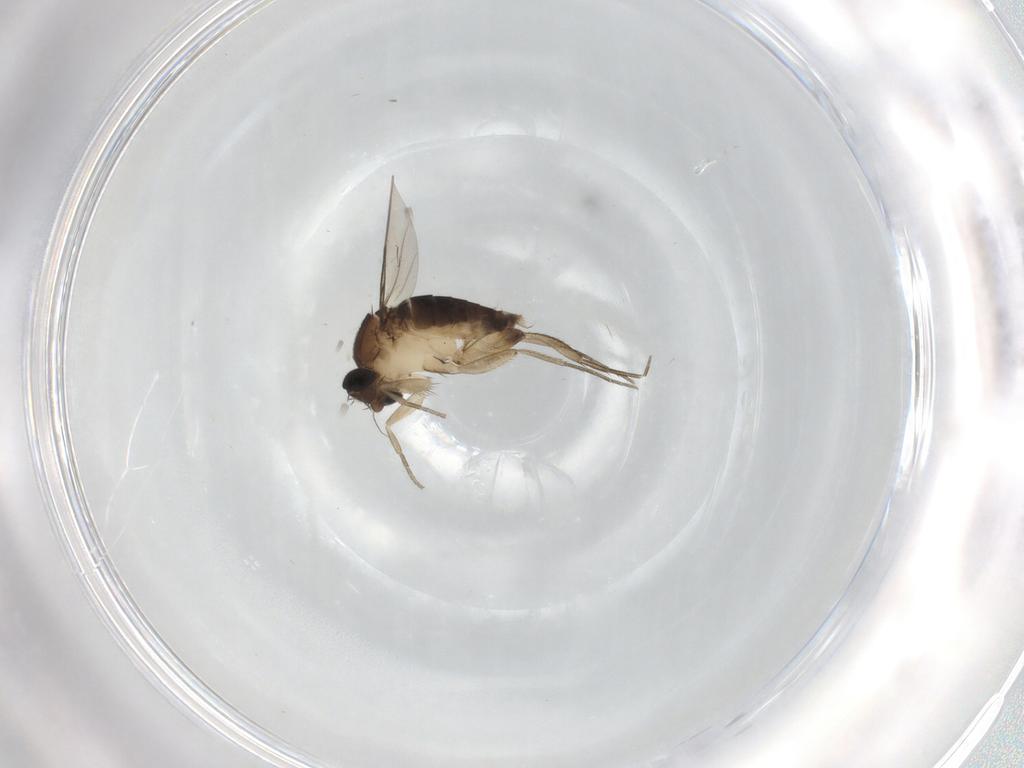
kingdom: Animalia
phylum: Arthropoda
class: Insecta
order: Diptera
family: Phoridae
